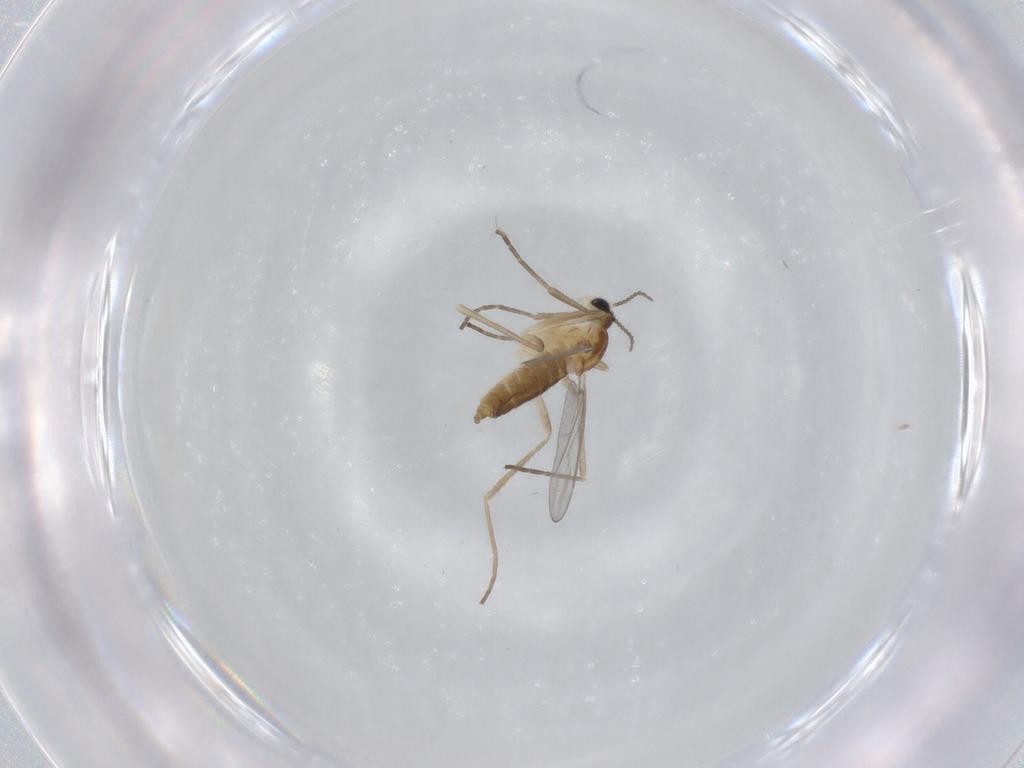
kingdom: Animalia
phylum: Arthropoda
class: Insecta
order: Diptera
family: Cecidomyiidae
